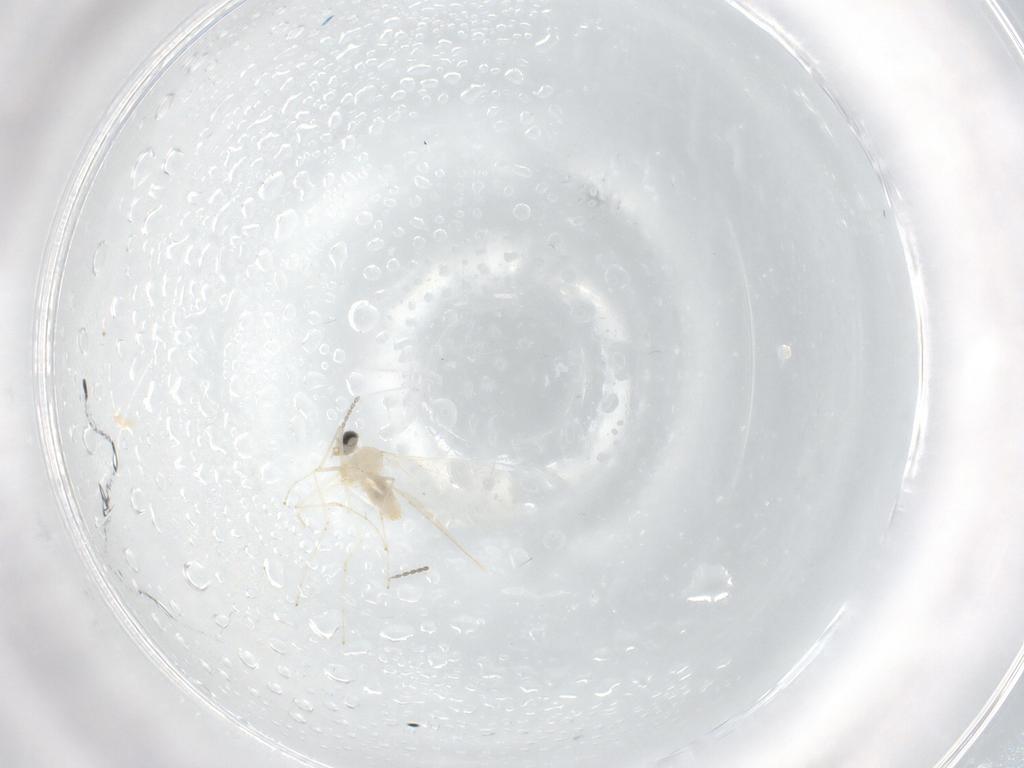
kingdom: Animalia
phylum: Arthropoda
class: Insecta
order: Diptera
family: Cecidomyiidae
